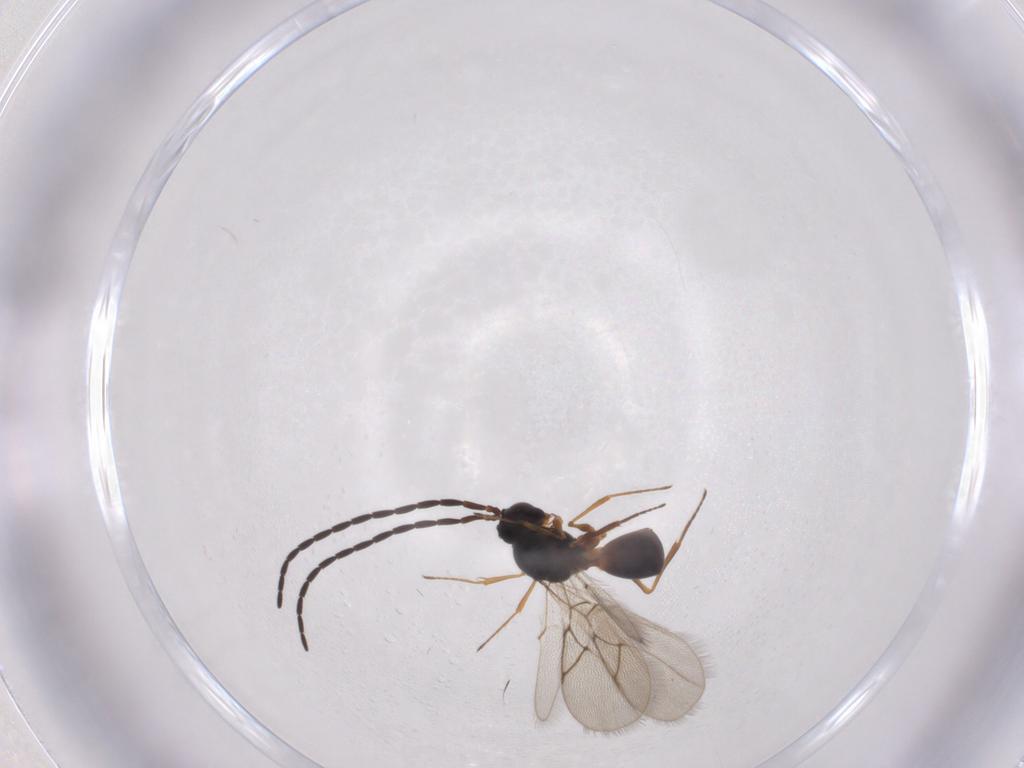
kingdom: Animalia
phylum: Arthropoda
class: Insecta
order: Hymenoptera
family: Figitidae
